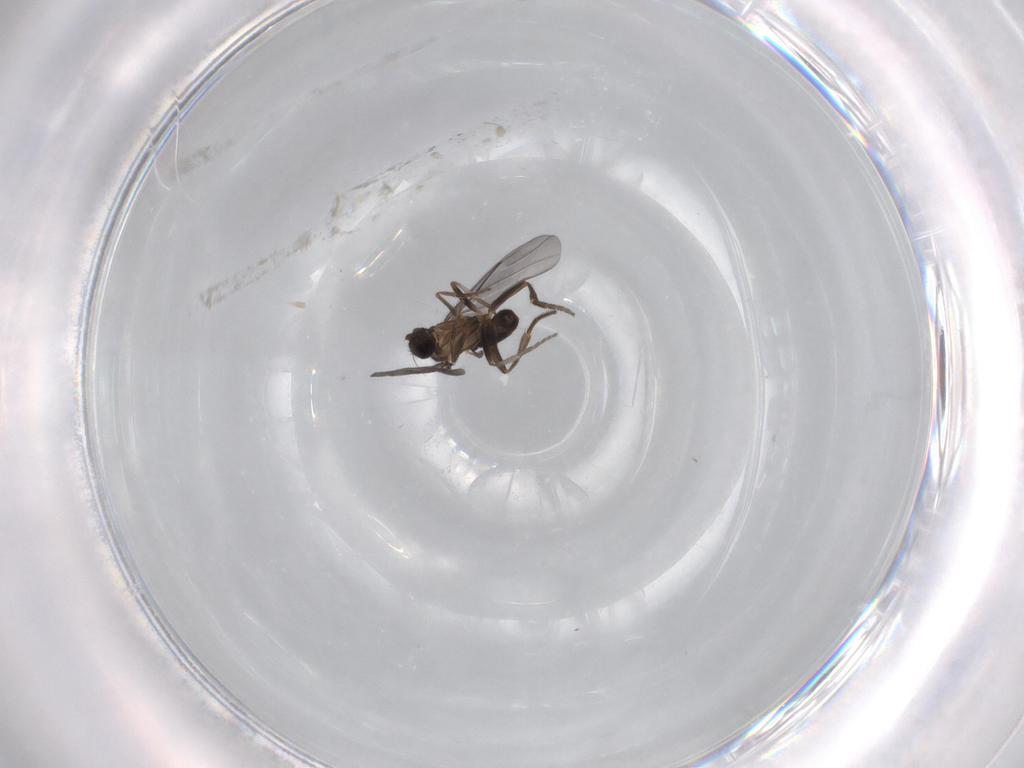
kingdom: Animalia
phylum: Arthropoda
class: Insecta
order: Diptera
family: Phoridae
